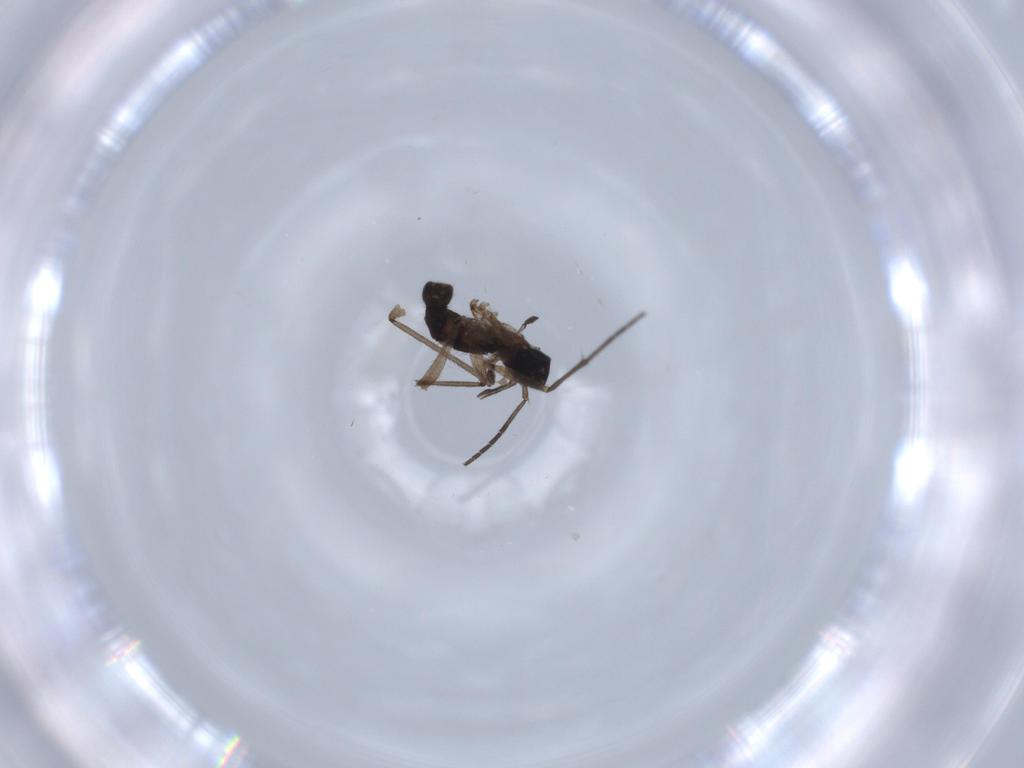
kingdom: Animalia
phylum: Arthropoda
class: Insecta
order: Diptera
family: Sciaridae
